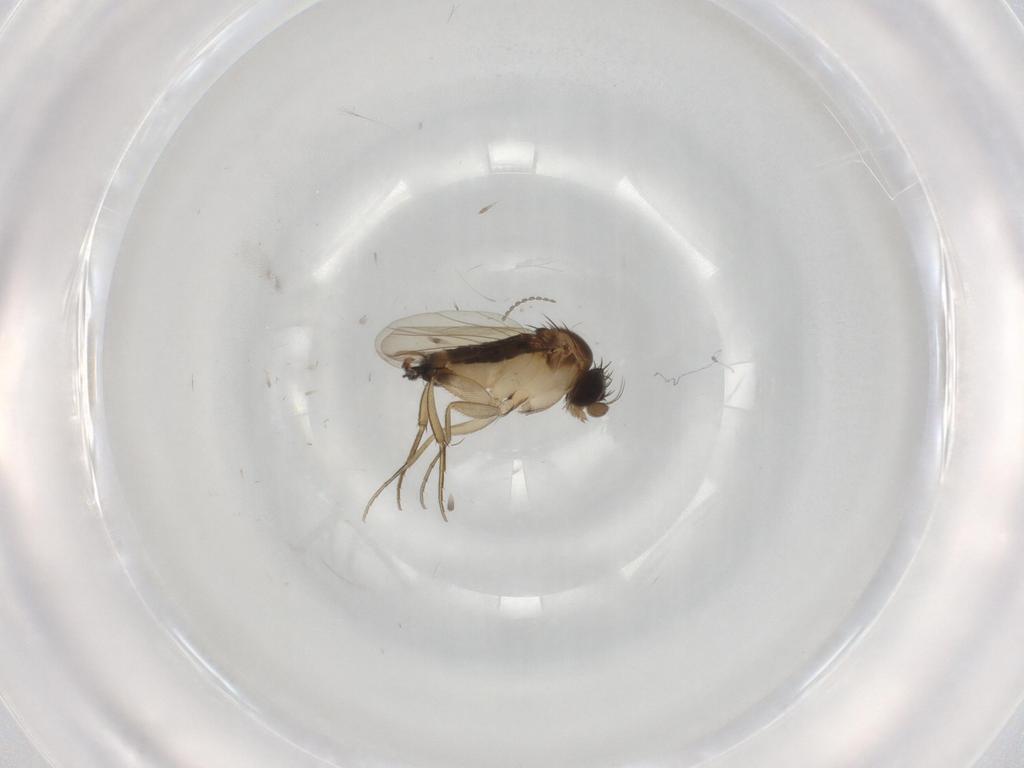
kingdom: Animalia
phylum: Arthropoda
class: Insecta
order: Diptera
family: Phoridae
